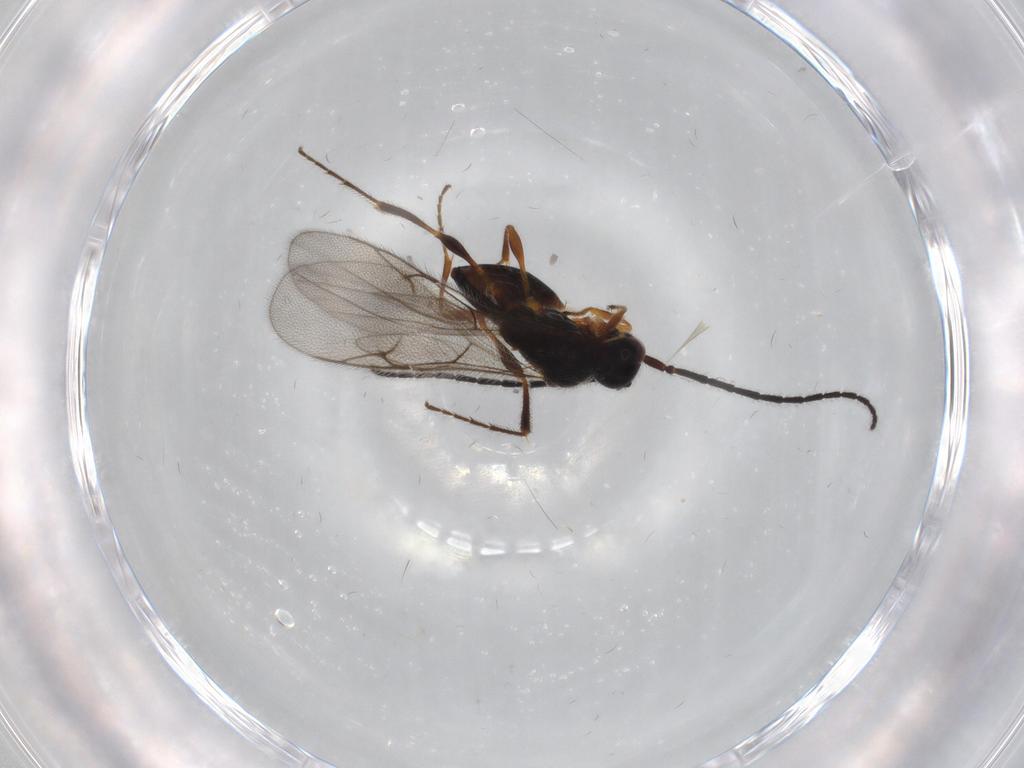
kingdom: Animalia
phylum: Arthropoda
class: Insecta
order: Hymenoptera
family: Diapriidae
